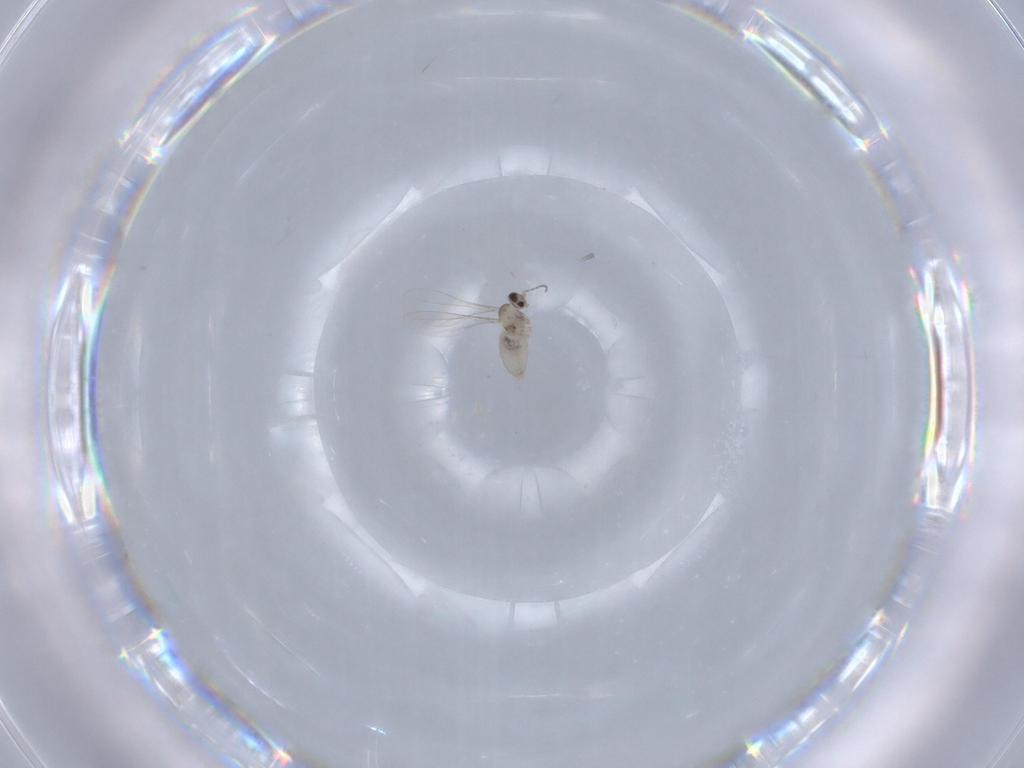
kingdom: Animalia
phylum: Arthropoda
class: Insecta
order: Diptera
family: Cecidomyiidae
